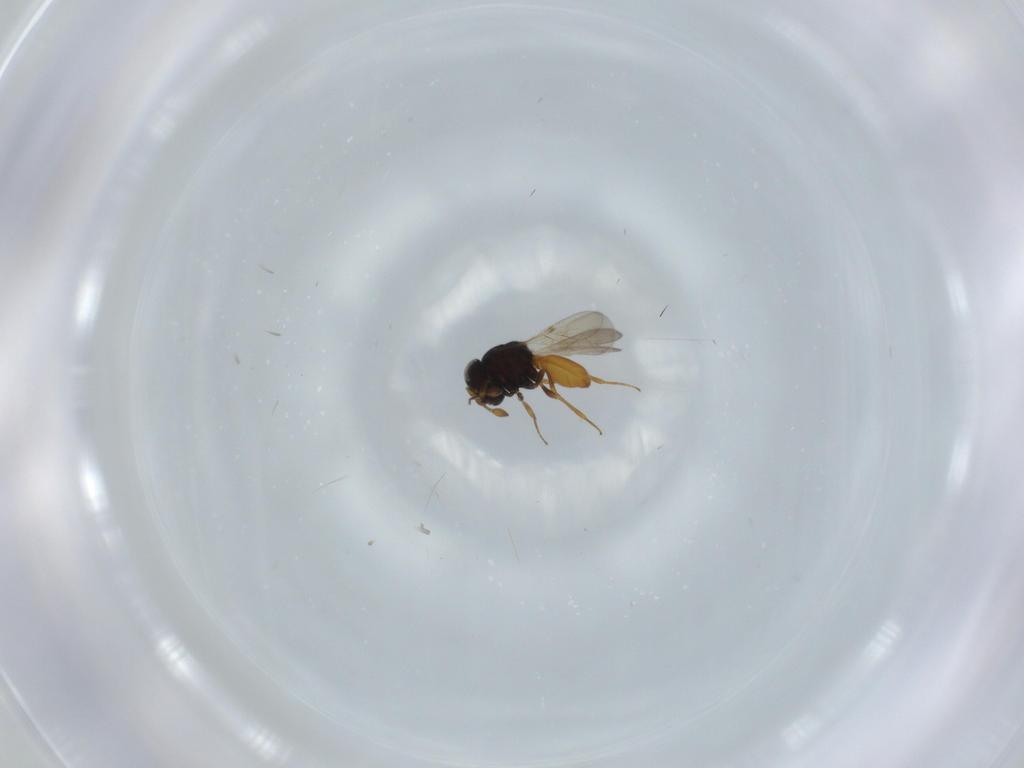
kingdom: Animalia
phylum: Arthropoda
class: Insecta
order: Hymenoptera
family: Scelionidae
